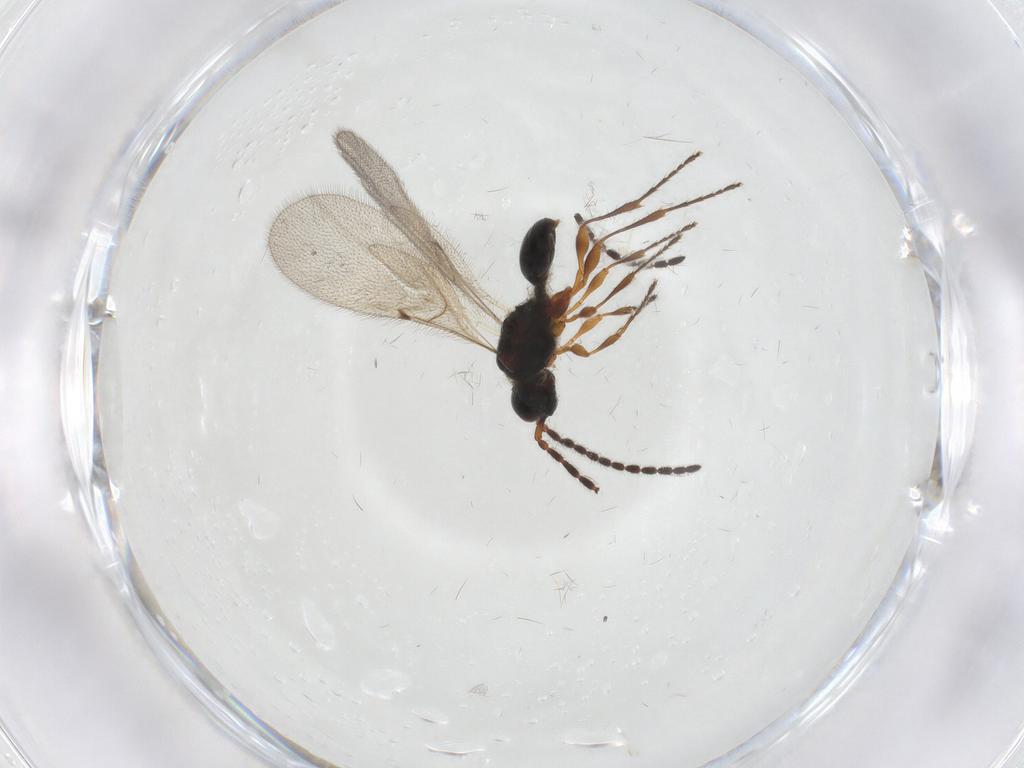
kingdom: Animalia
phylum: Arthropoda
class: Insecta
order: Hymenoptera
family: Diapriidae
